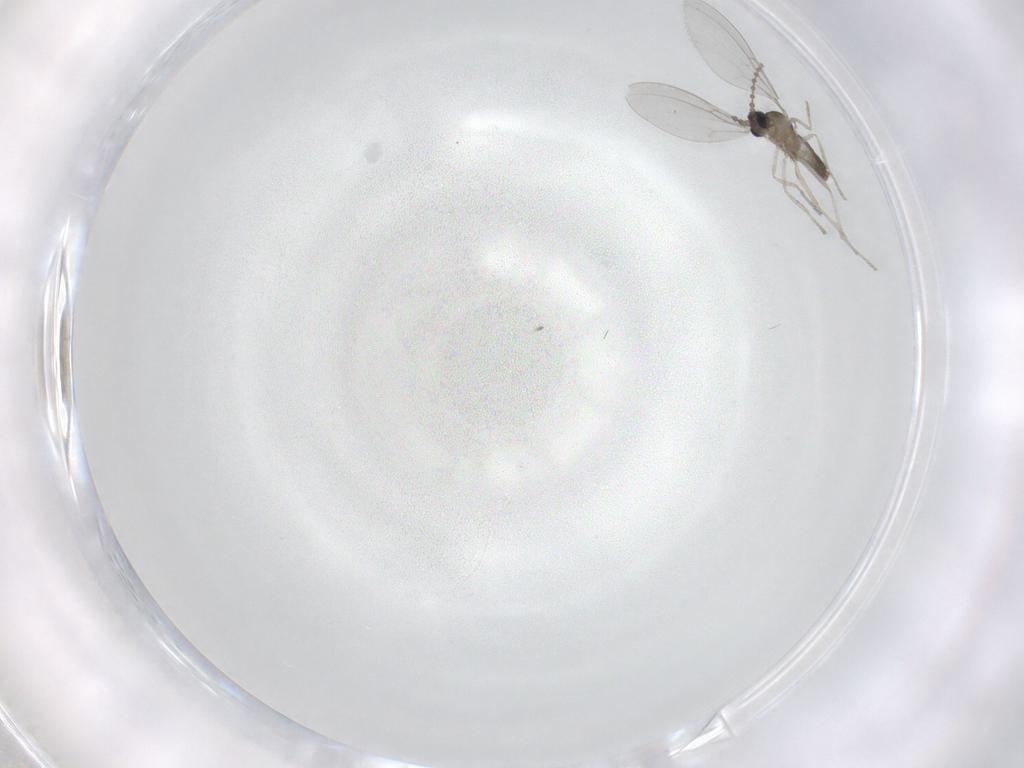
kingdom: Animalia
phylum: Arthropoda
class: Insecta
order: Diptera
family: Cecidomyiidae
